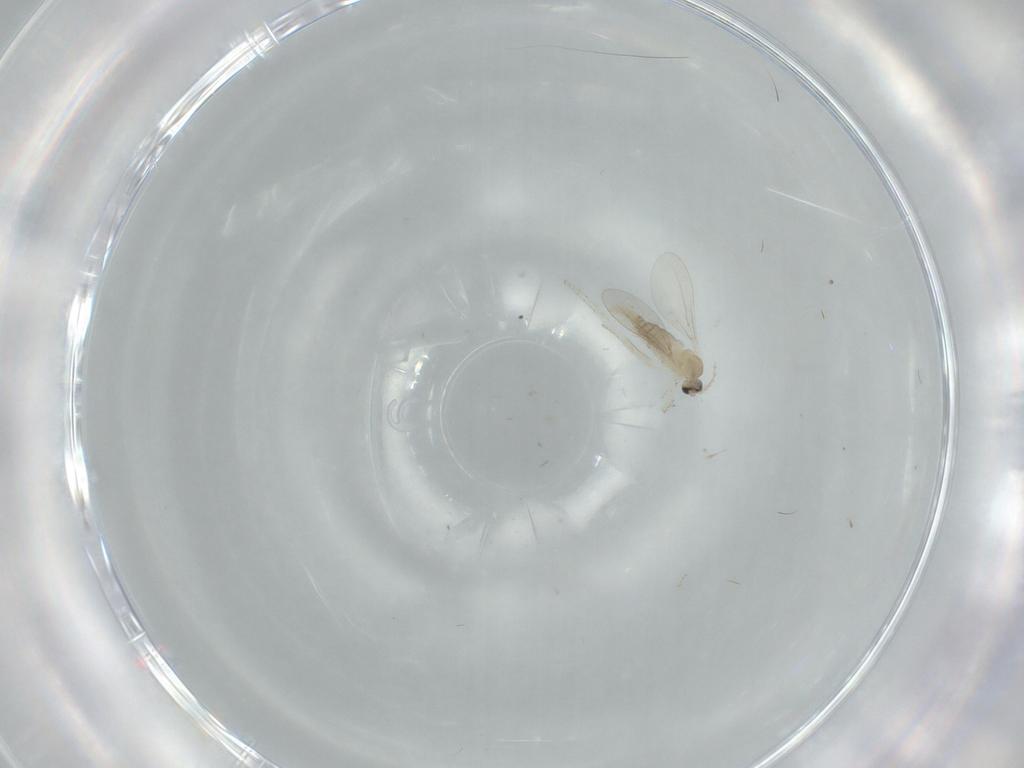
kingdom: Animalia
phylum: Arthropoda
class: Insecta
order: Diptera
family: Cecidomyiidae
